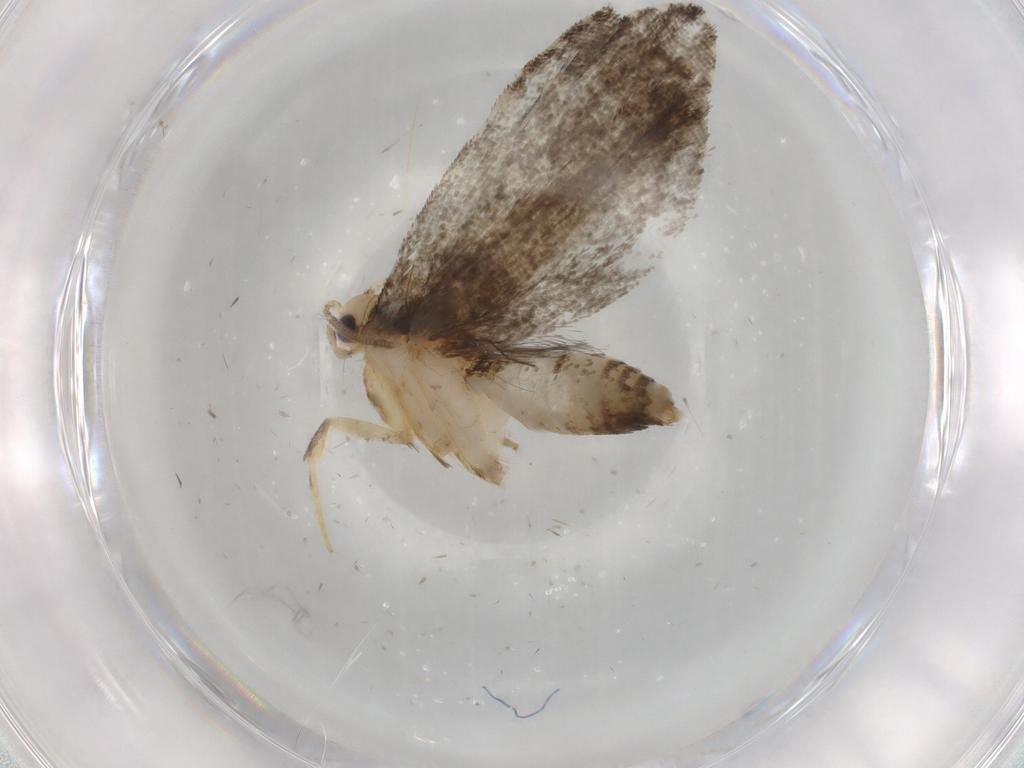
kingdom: Animalia
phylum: Arthropoda
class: Insecta
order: Lepidoptera
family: Tineidae
